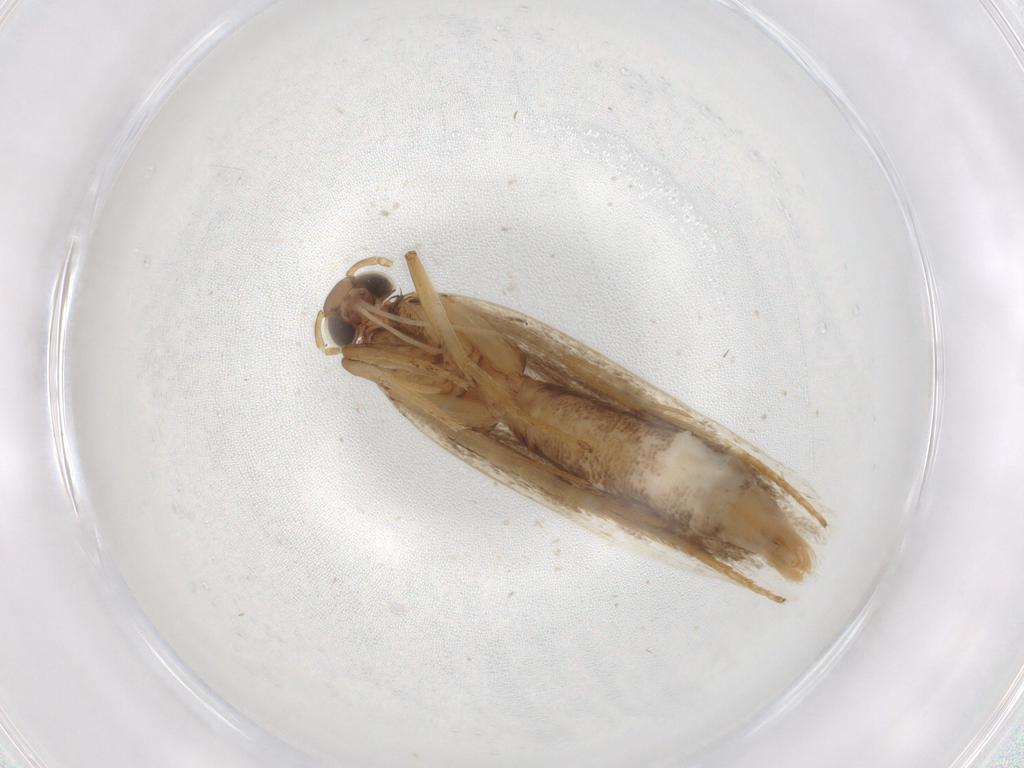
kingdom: Animalia
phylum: Arthropoda
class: Insecta
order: Lepidoptera
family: Gelechiidae
